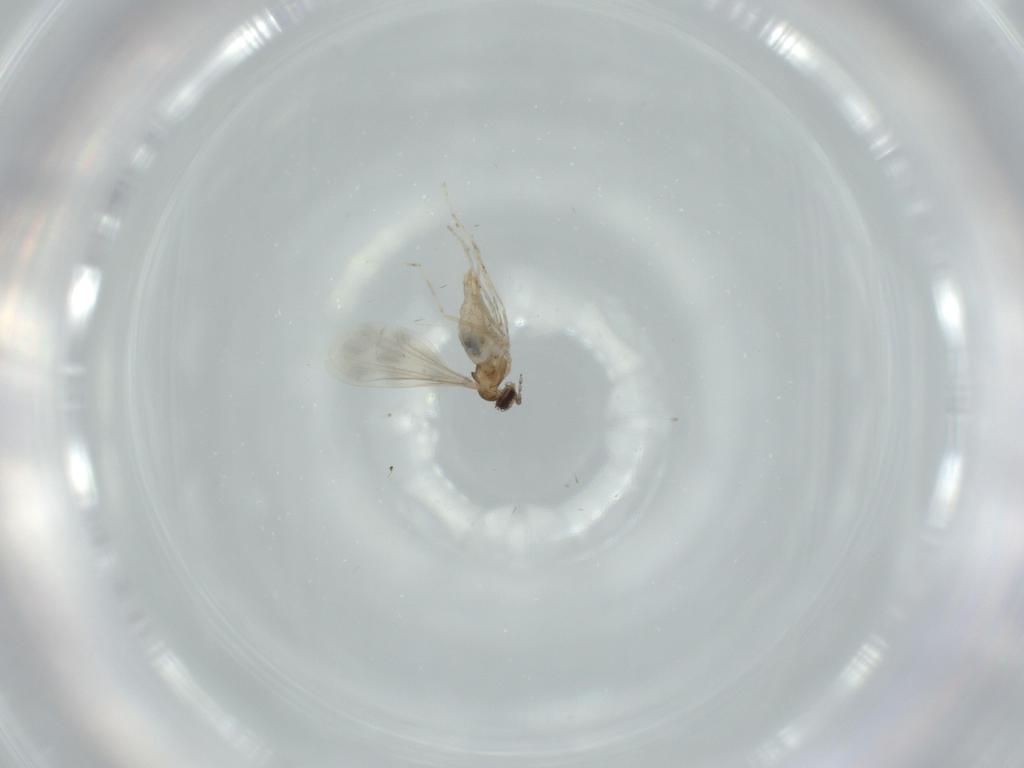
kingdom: Animalia
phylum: Arthropoda
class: Insecta
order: Diptera
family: Cecidomyiidae
